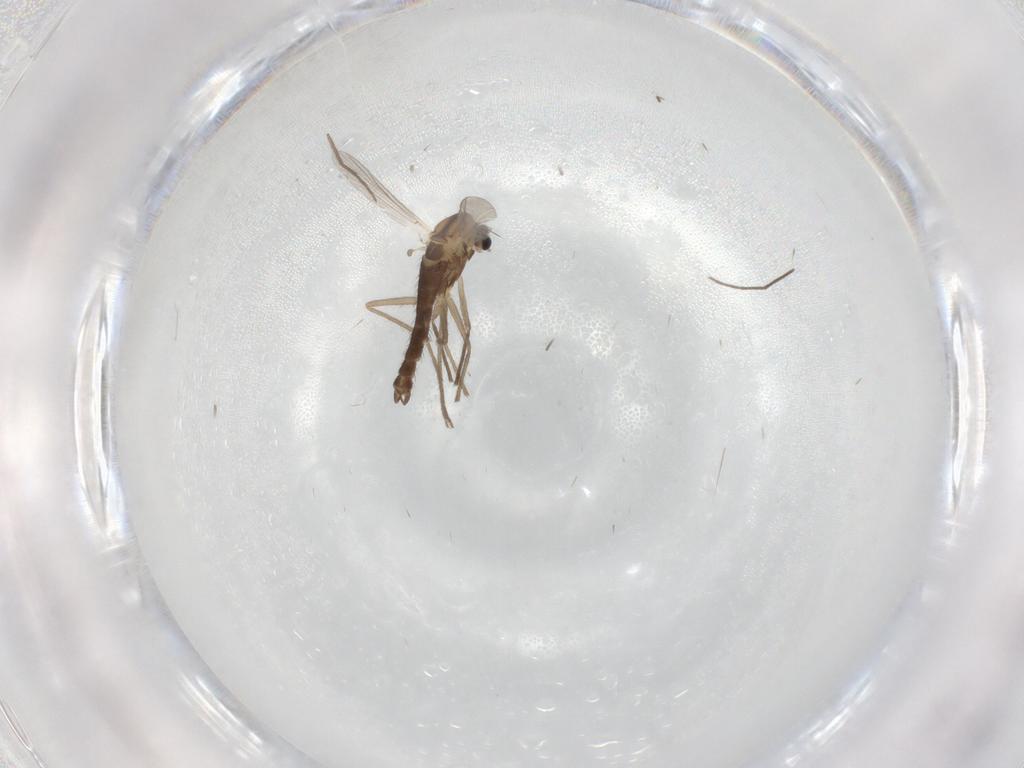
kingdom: Animalia
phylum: Arthropoda
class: Insecta
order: Diptera
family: Chironomidae
